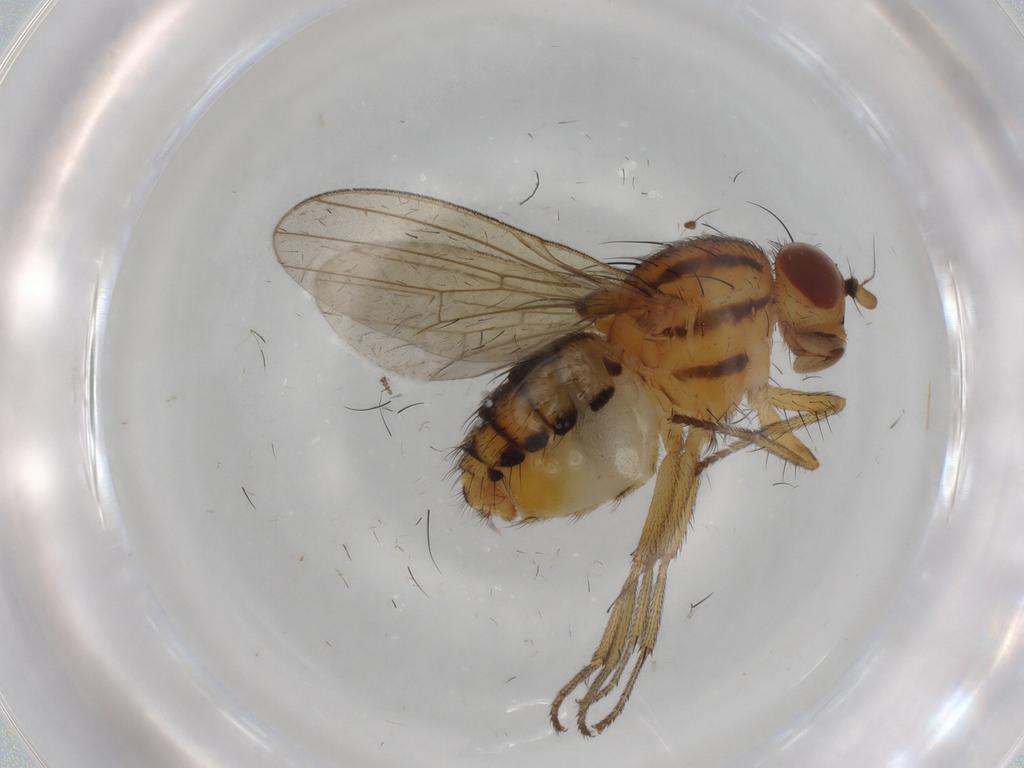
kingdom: Animalia
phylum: Arthropoda
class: Insecta
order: Diptera
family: Ceratopogonidae
